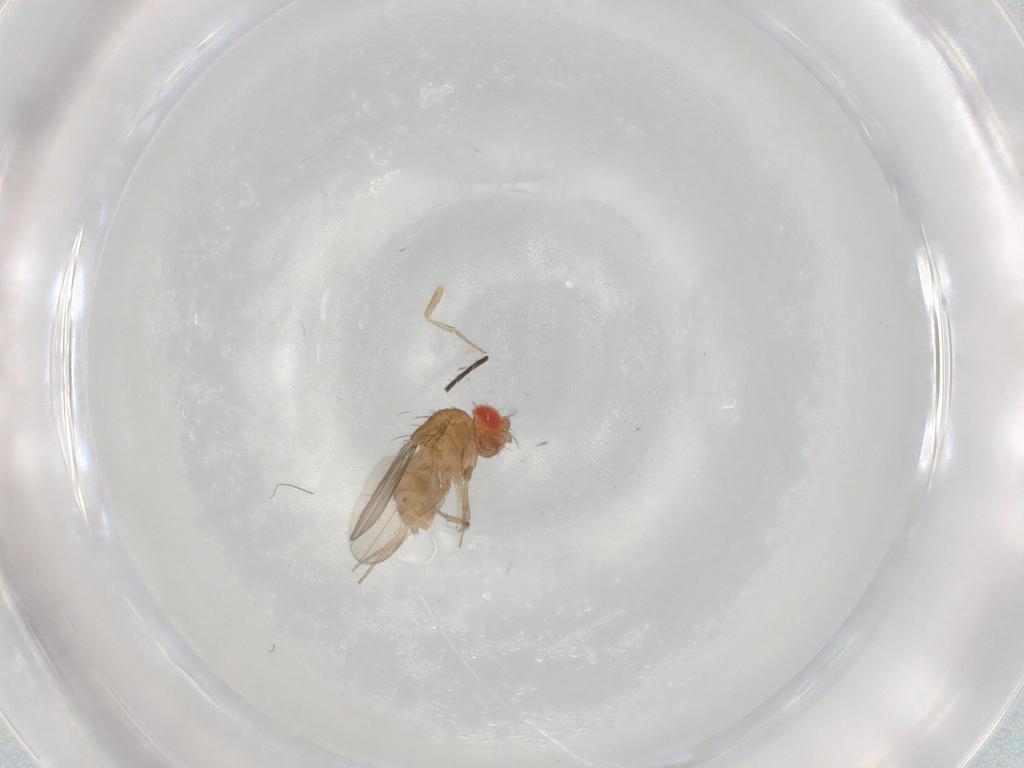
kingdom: Animalia
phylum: Arthropoda
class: Insecta
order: Diptera
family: Drosophilidae
